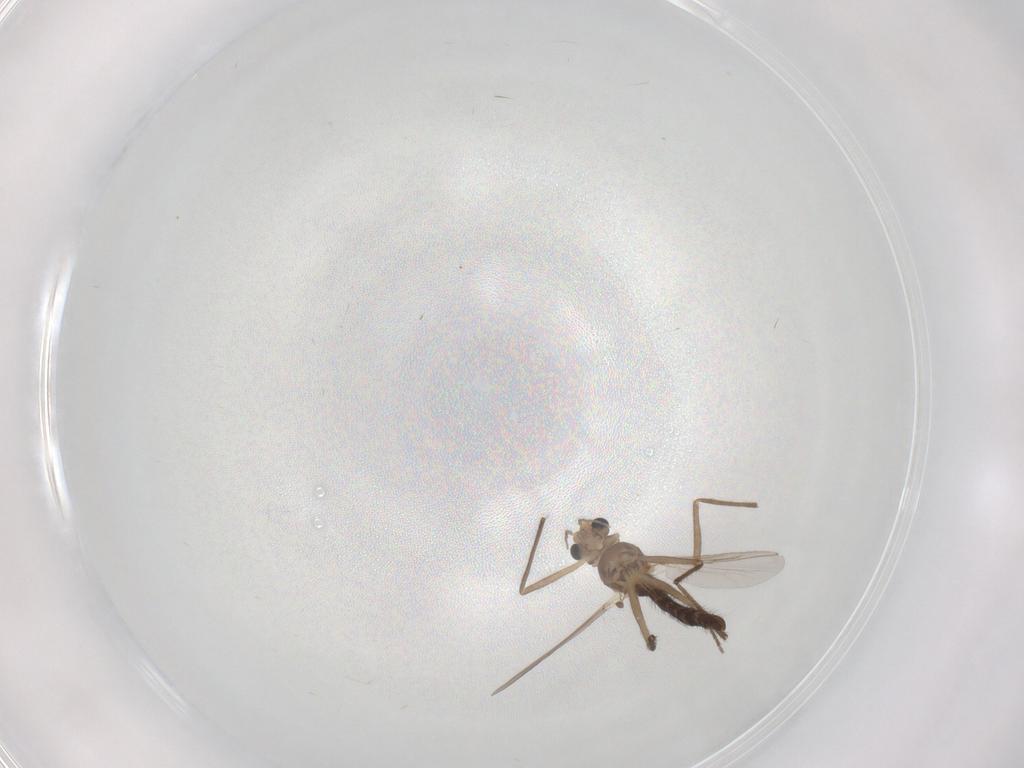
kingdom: Animalia
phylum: Arthropoda
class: Insecta
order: Diptera
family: Chironomidae
